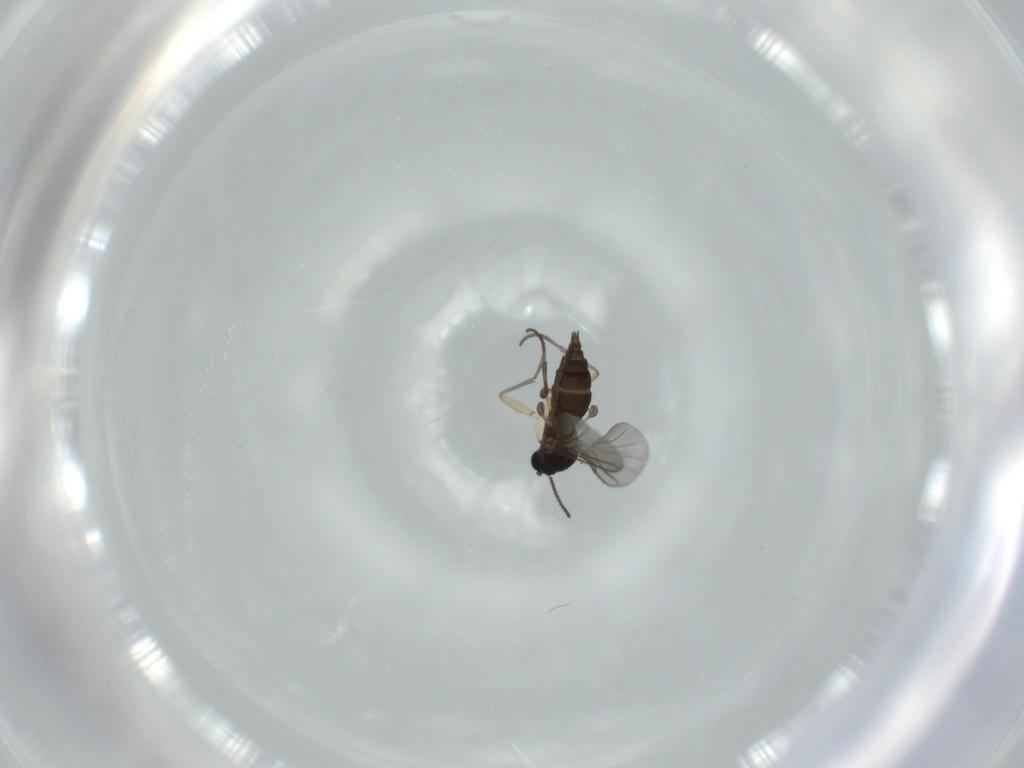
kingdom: Animalia
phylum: Arthropoda
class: Insecta
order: Diptera
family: Sciaridae
